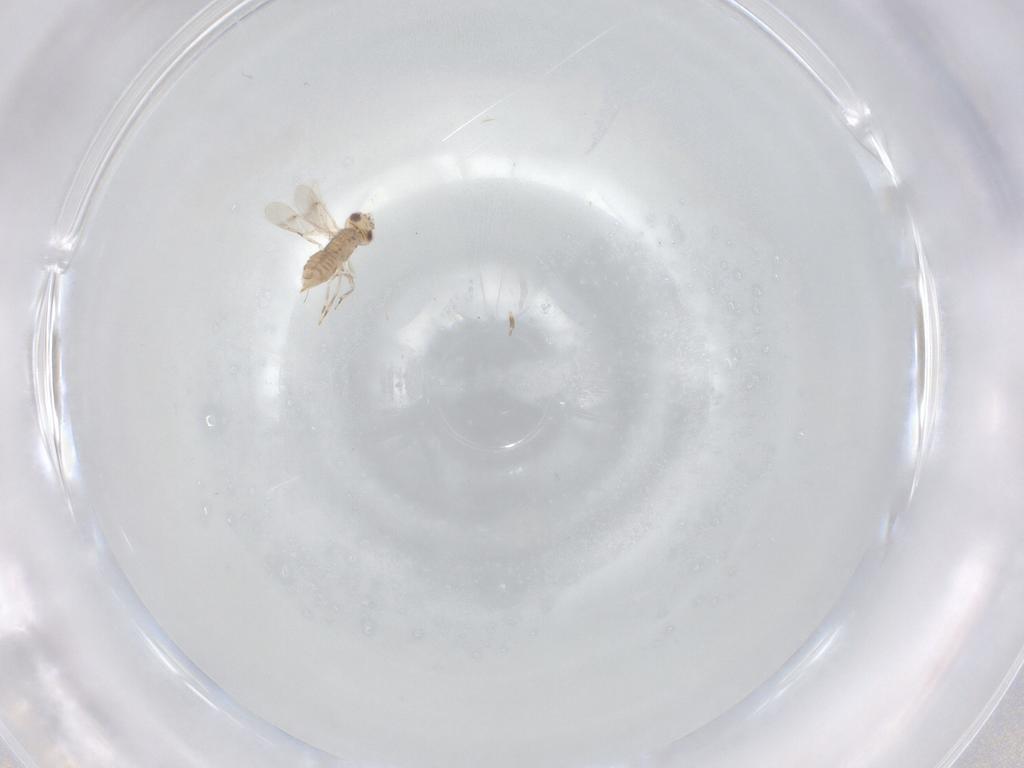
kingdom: Animalia
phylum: Arthropoda
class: Insecta
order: Hymenoptera
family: Aphelinidae
